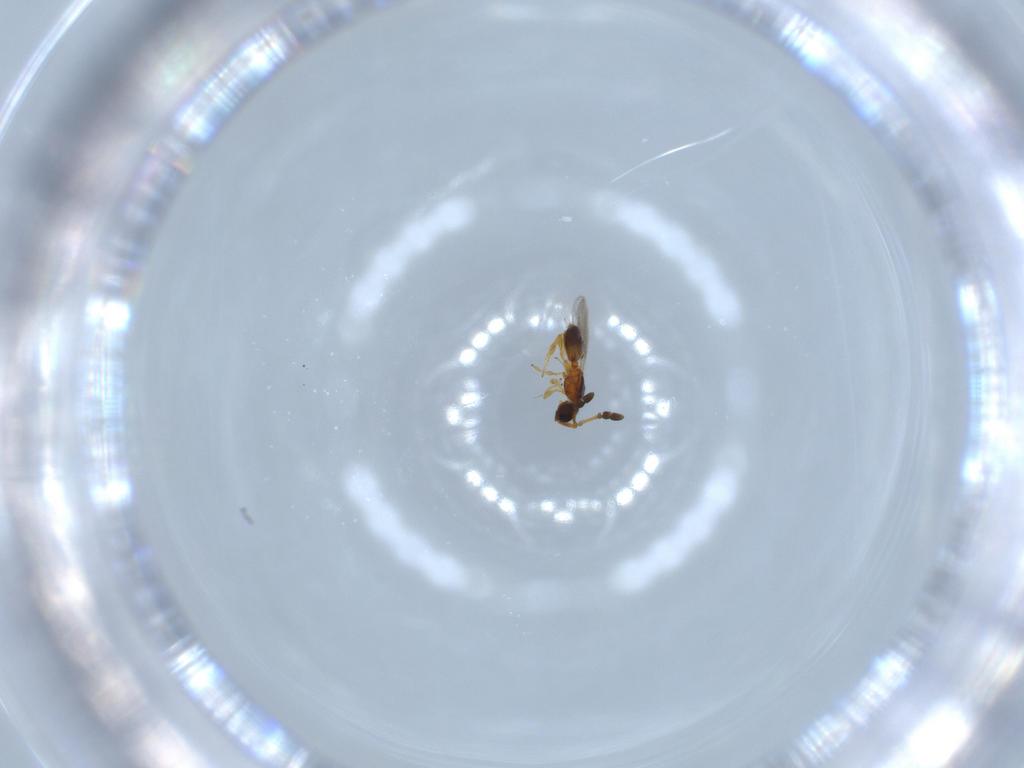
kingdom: Animalia
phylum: Arthropoda
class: Insecta
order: Hymenoptera
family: Diapriidae
